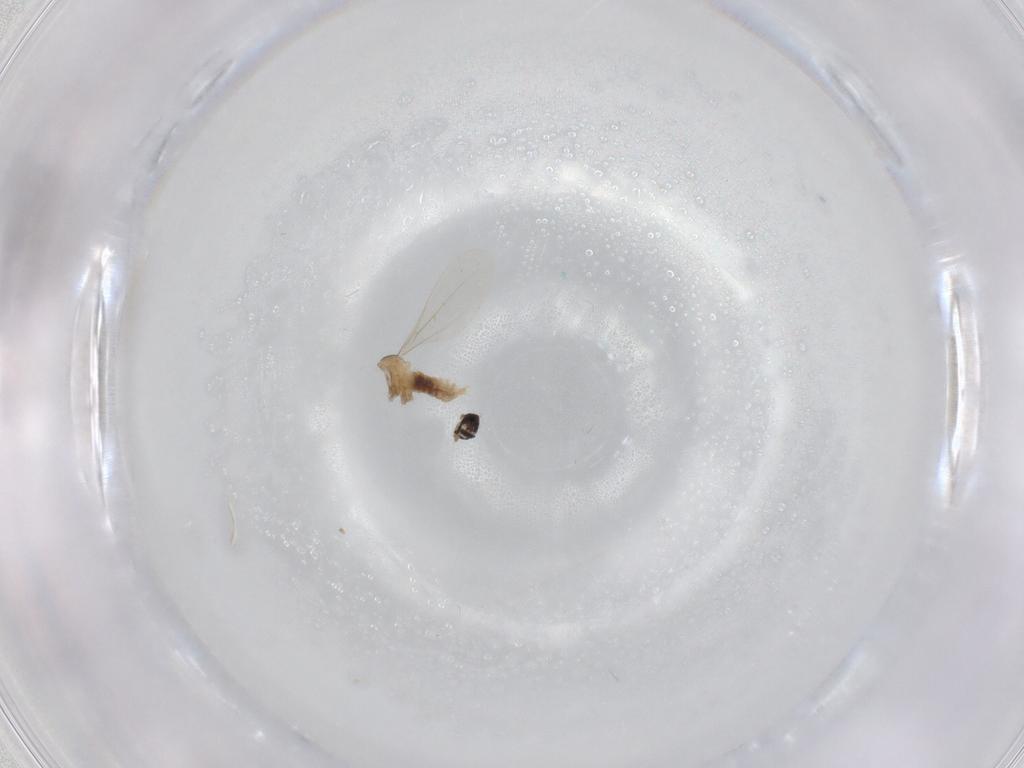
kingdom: Animalia
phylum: Arthropoda
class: Insecta
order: Diptera
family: Cecidomyiidae
